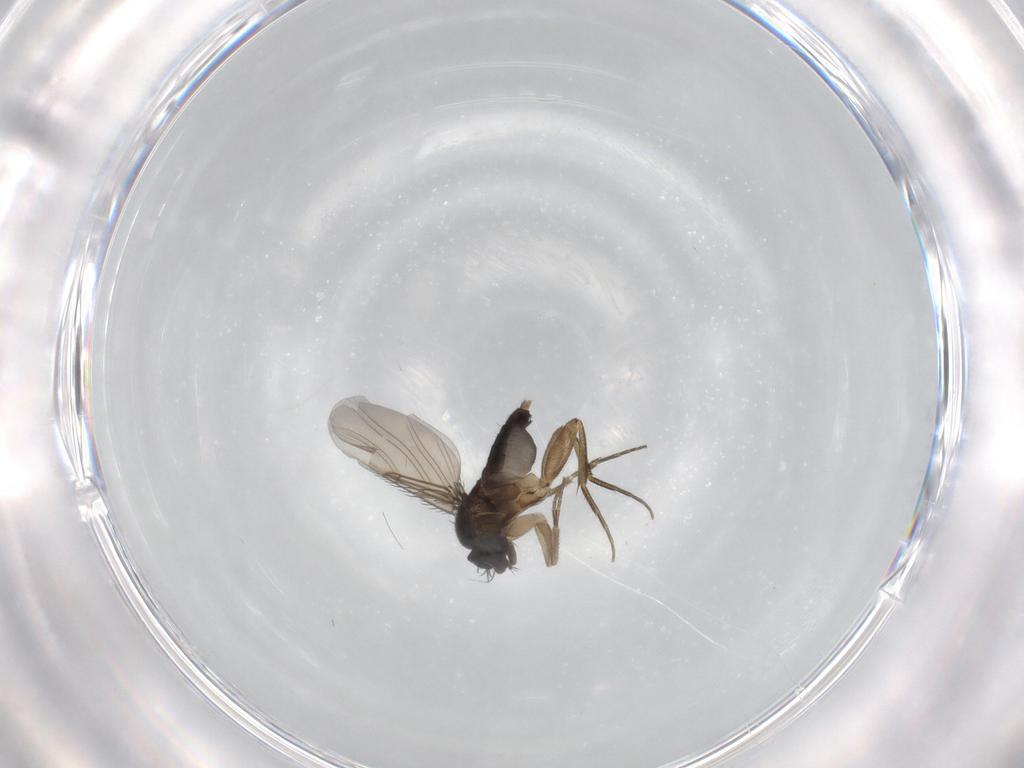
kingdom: Animalia
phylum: Arthropoda
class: Insecta
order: Diptera
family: Phoridae
